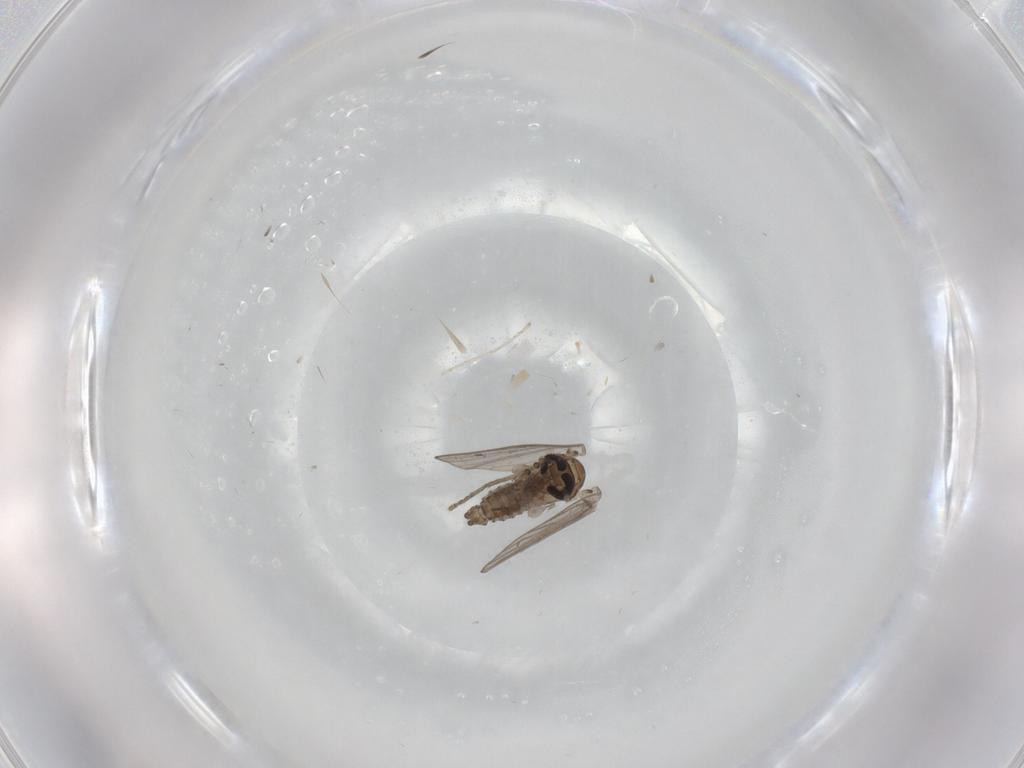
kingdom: Animalia
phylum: Arthropoda
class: Insecta
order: Diptera
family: Psychodidae
